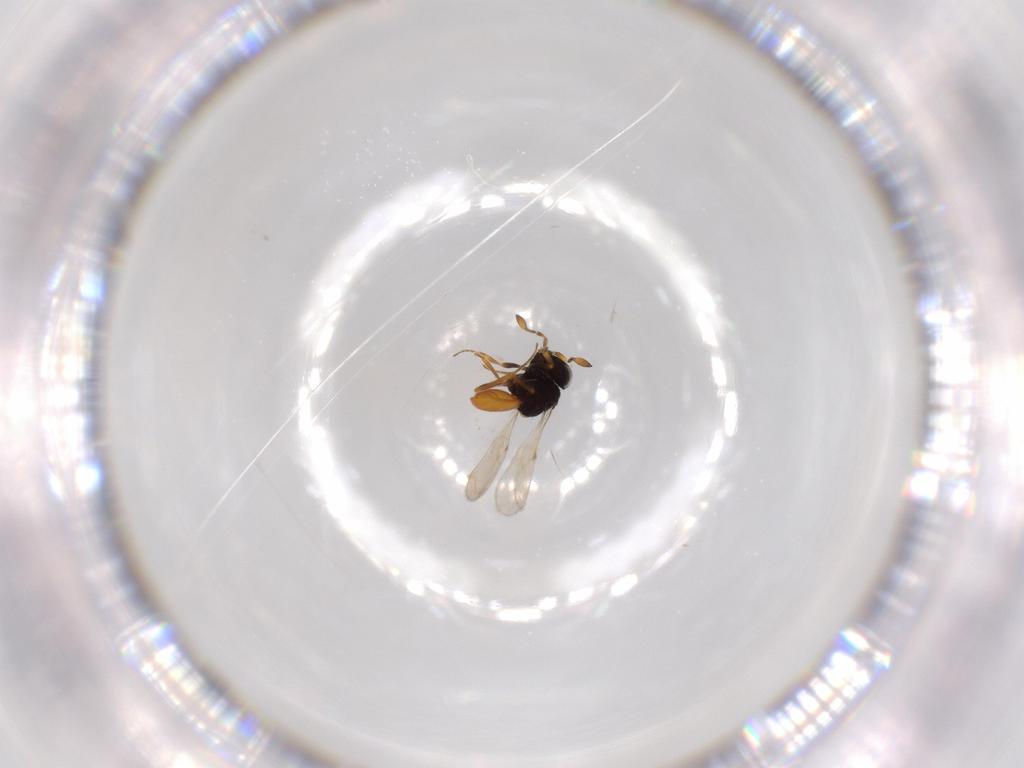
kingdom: Animalia
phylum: Arthropoda
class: Insecta
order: Hymenoptera
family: Scelionidae
